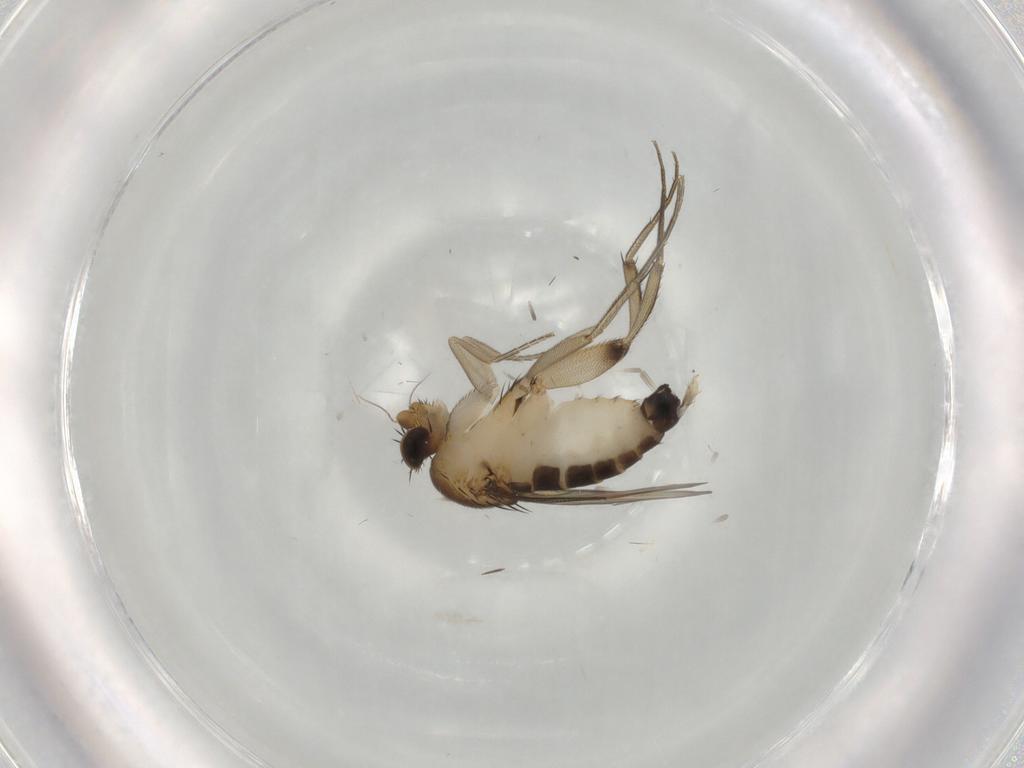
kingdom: Animalia
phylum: Arthropoda
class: Insecta
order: Diptera
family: Phoridae
